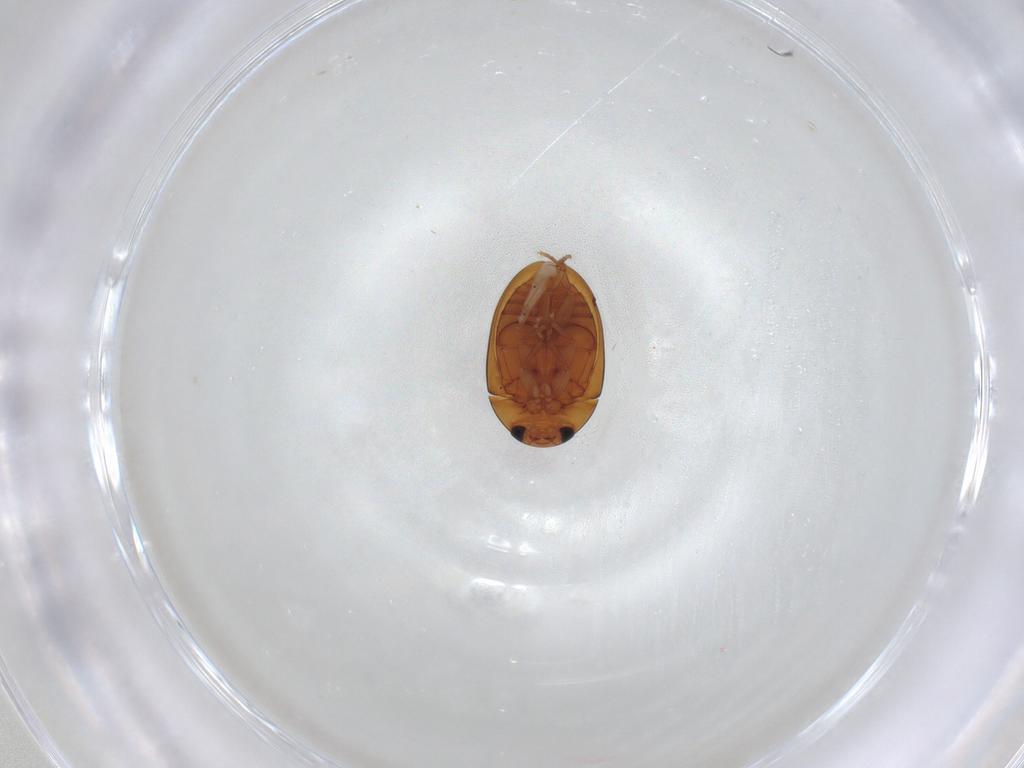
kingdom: Animalia
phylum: Arthropoda
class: Insecta
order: Coleoptera
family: Phalacridae
